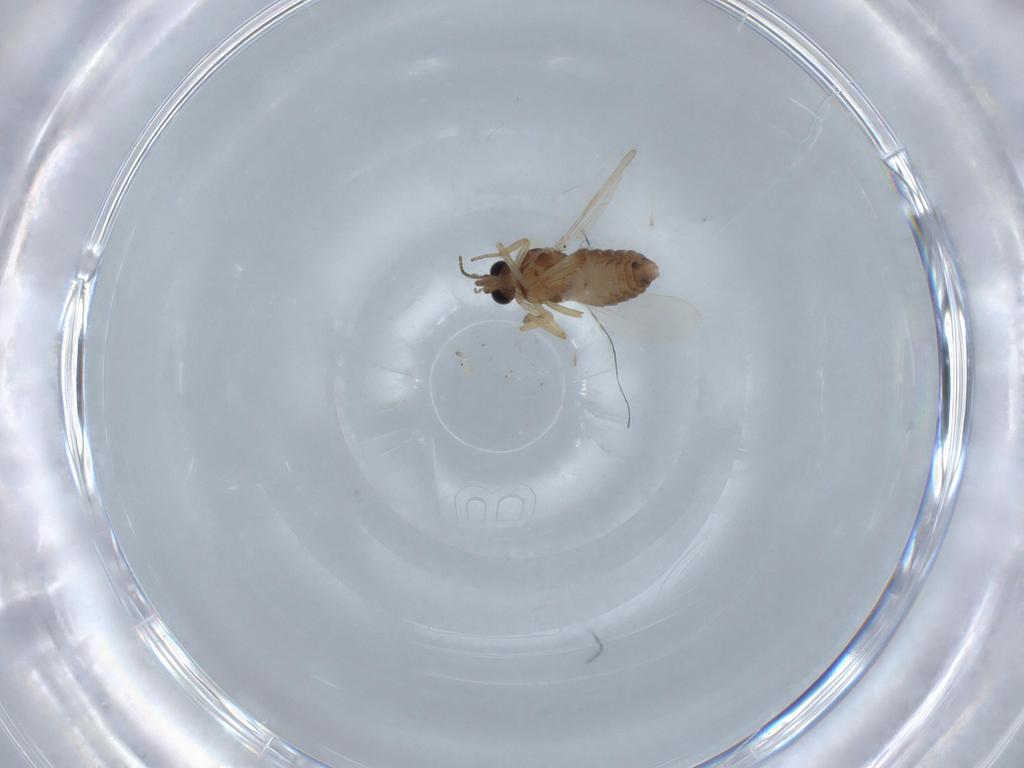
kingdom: Animalia
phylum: Arthropoda
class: Insecta
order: Diptera
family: Ceratopogonidae
